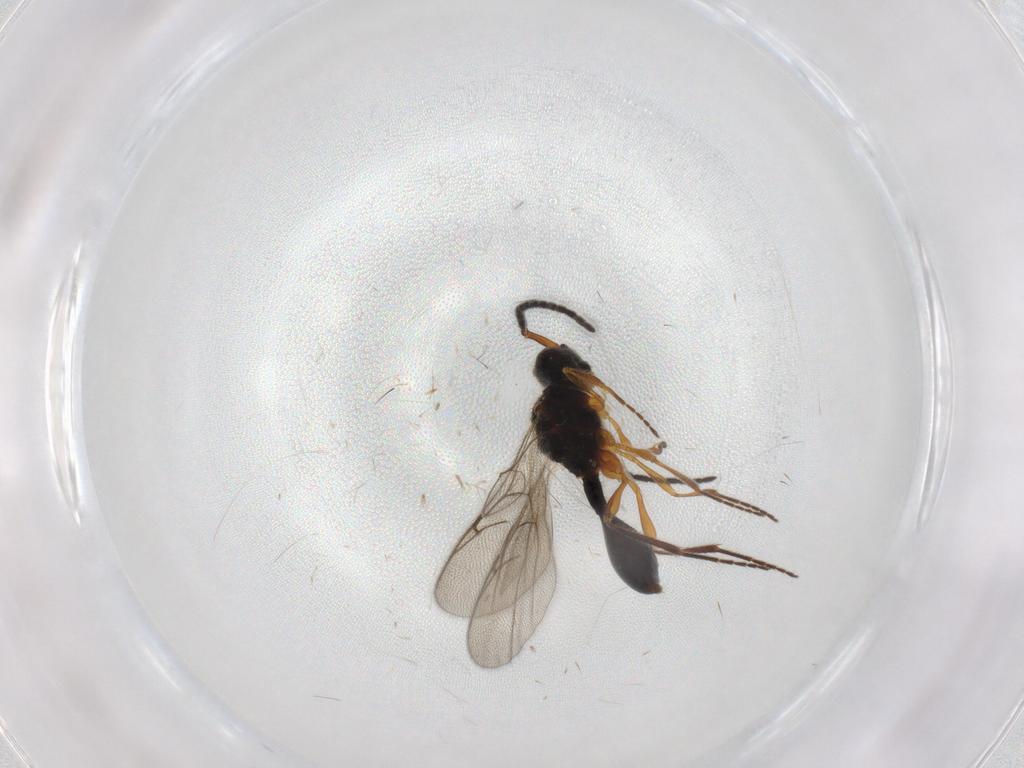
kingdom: Animalia
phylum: Arthropoda
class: Insecta
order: Hymenoptera
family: Diapriidae
